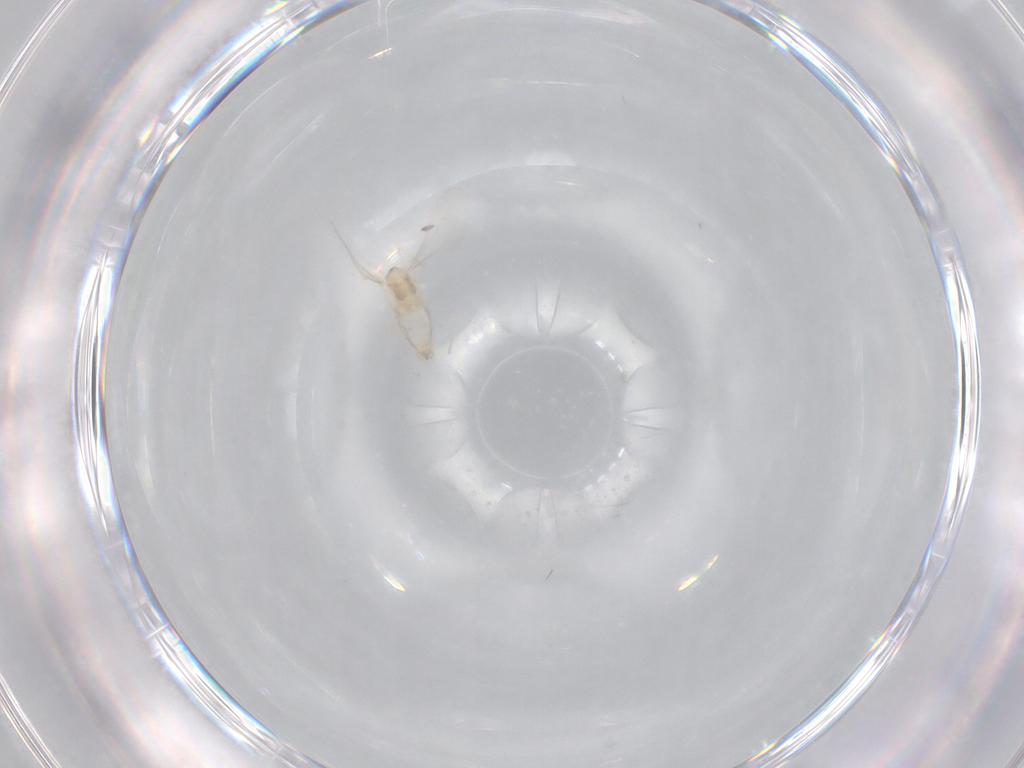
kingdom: Animalia
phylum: Arthropoda
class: Insecta
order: Diptera
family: Cecidomyiidae
